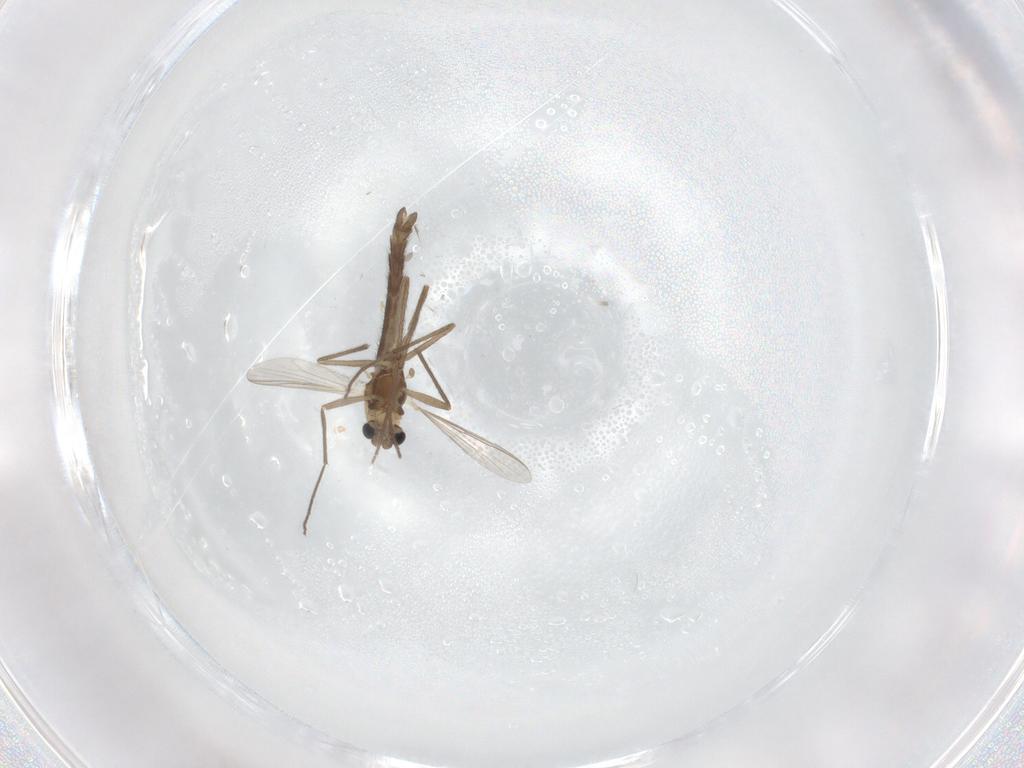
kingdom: Animalia
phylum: Arthropoda
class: Insecta
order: Diptera
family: Chironomidae
